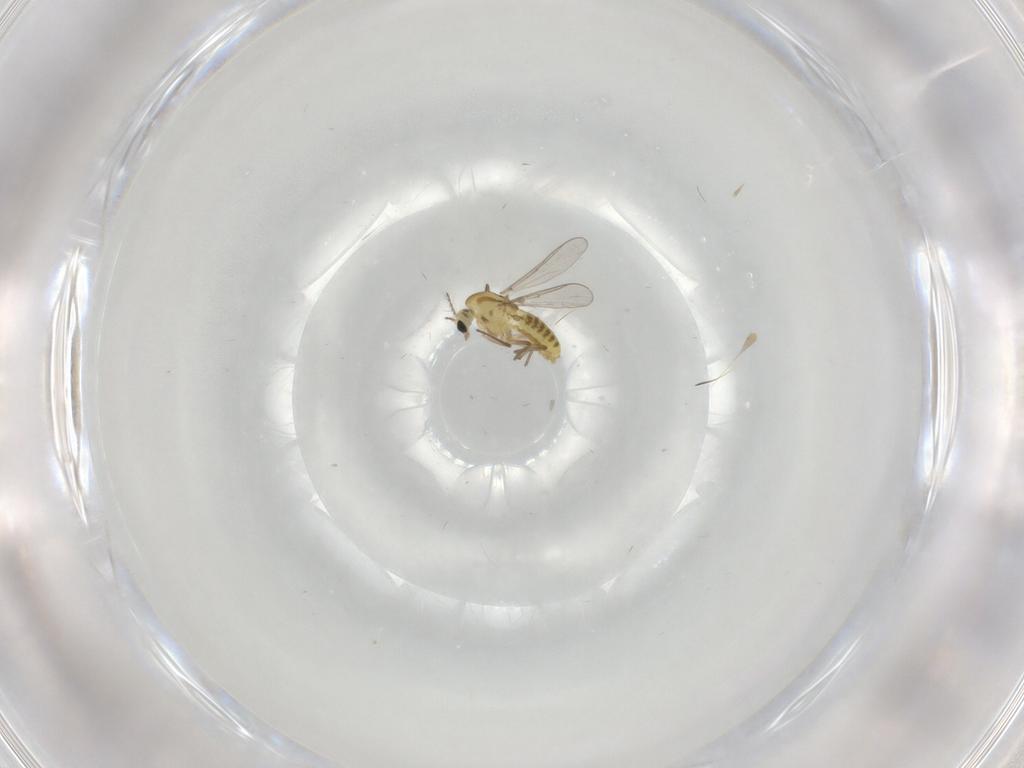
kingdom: Animalia
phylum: Arthropoda
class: Insecta
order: Diptera
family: Chironomidae
